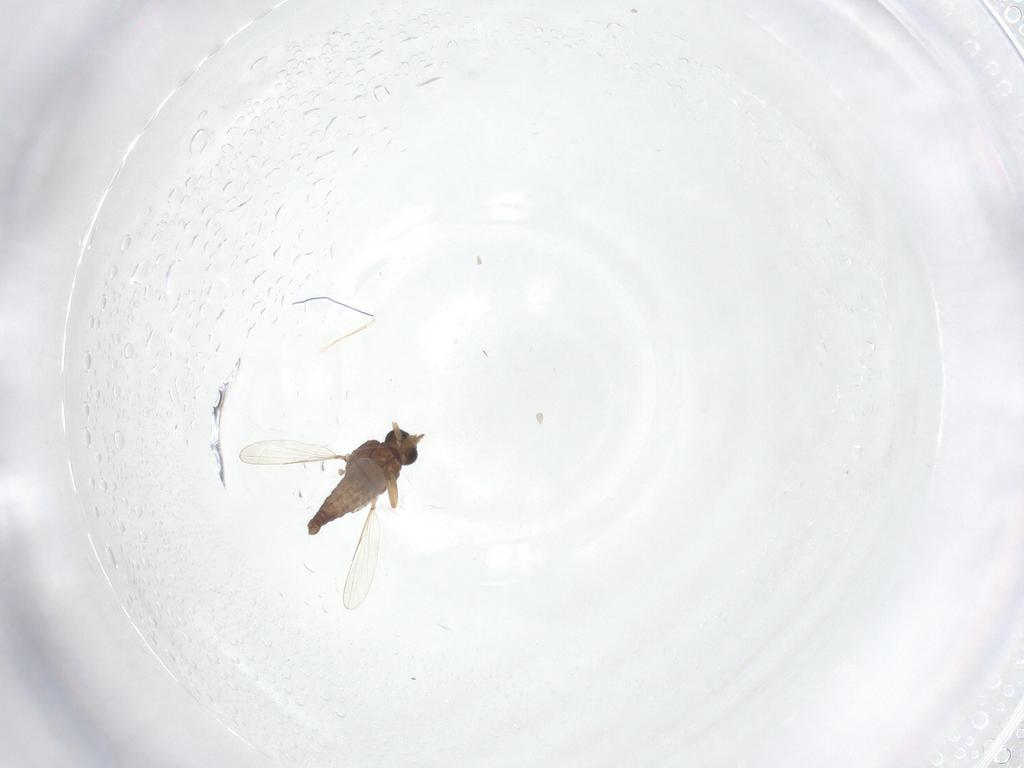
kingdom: Animalia
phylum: Arthropoda
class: Insecta
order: Diptera
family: Ceratopogonidae
